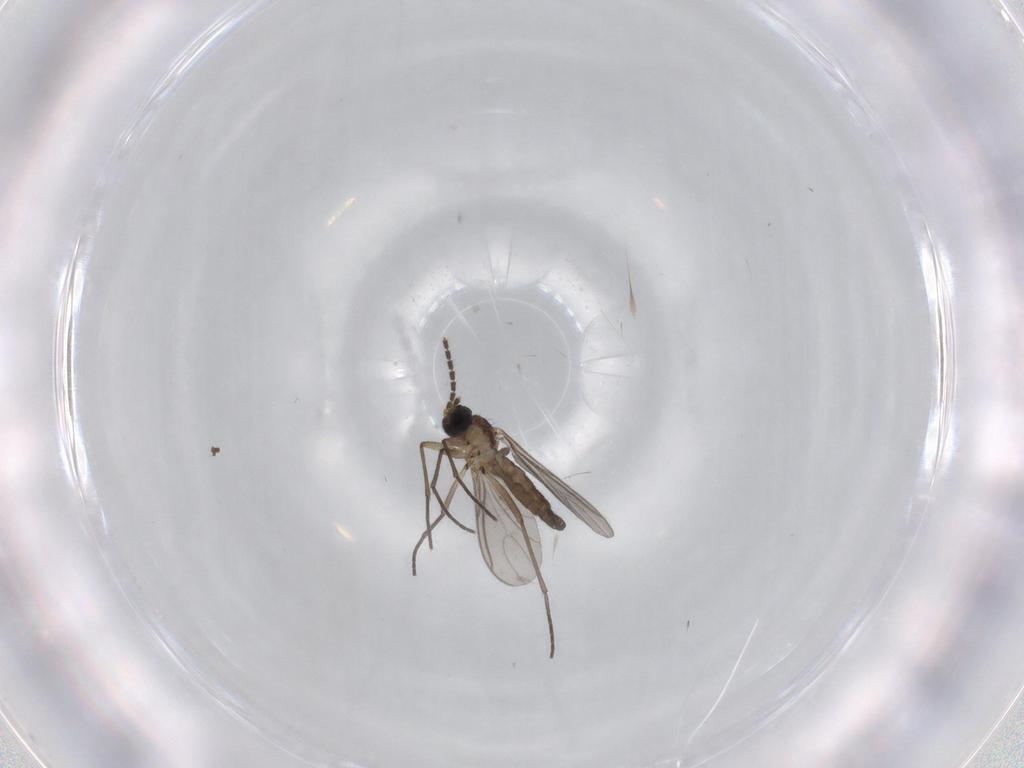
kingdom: Animalia
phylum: Arthropoda
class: Insecta
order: Diptera
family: Sciaridae
